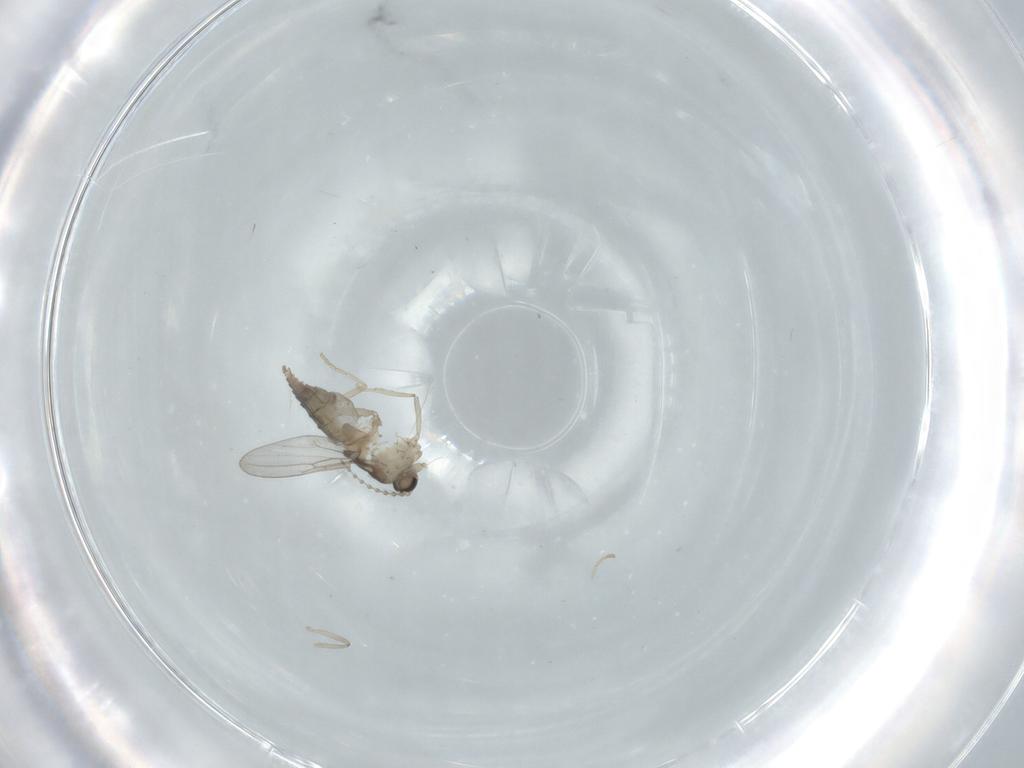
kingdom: Animalia
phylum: Arthropoda
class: Insecta
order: Diptera
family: Cecidomyiidae
